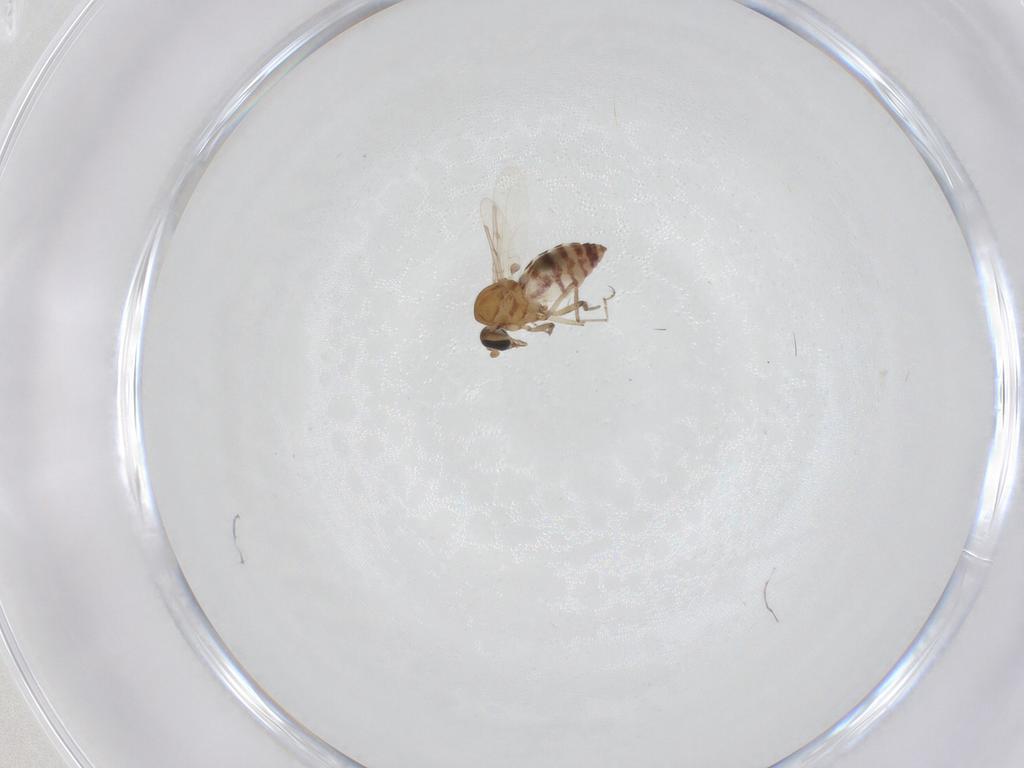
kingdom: Animalia
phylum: Arthropoda
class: Insecta
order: Diptera
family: Ceratopogonidae
